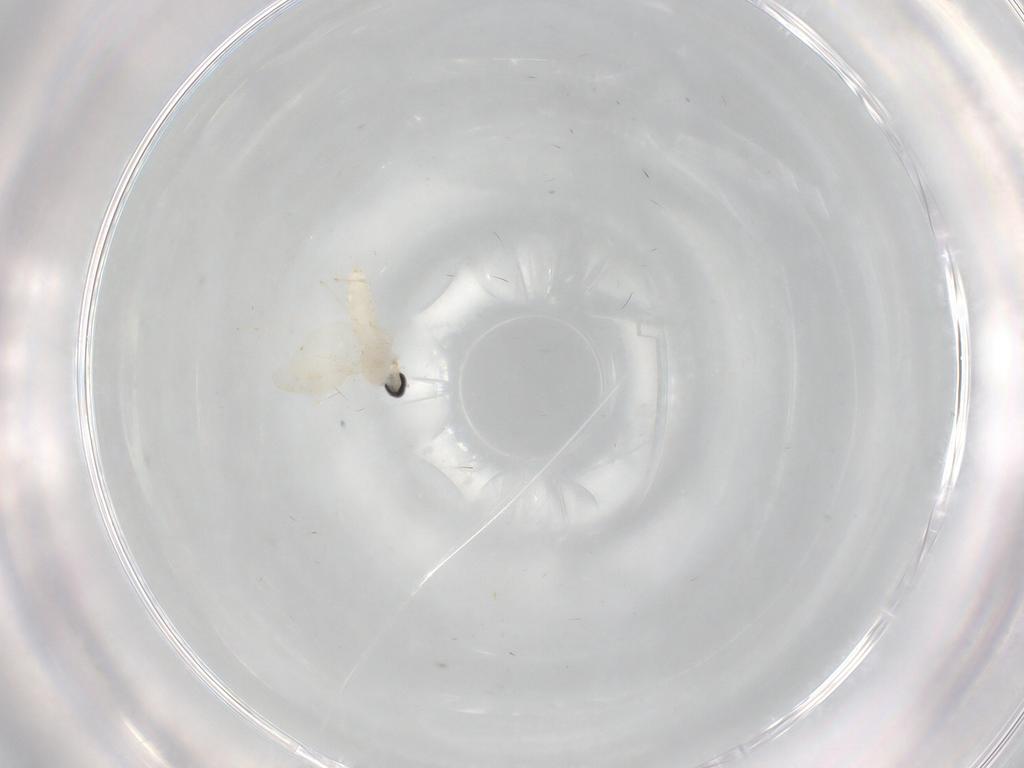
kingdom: Animalia
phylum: Arthropoda
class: Insecta
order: Diptera
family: Cecidomyiidae
